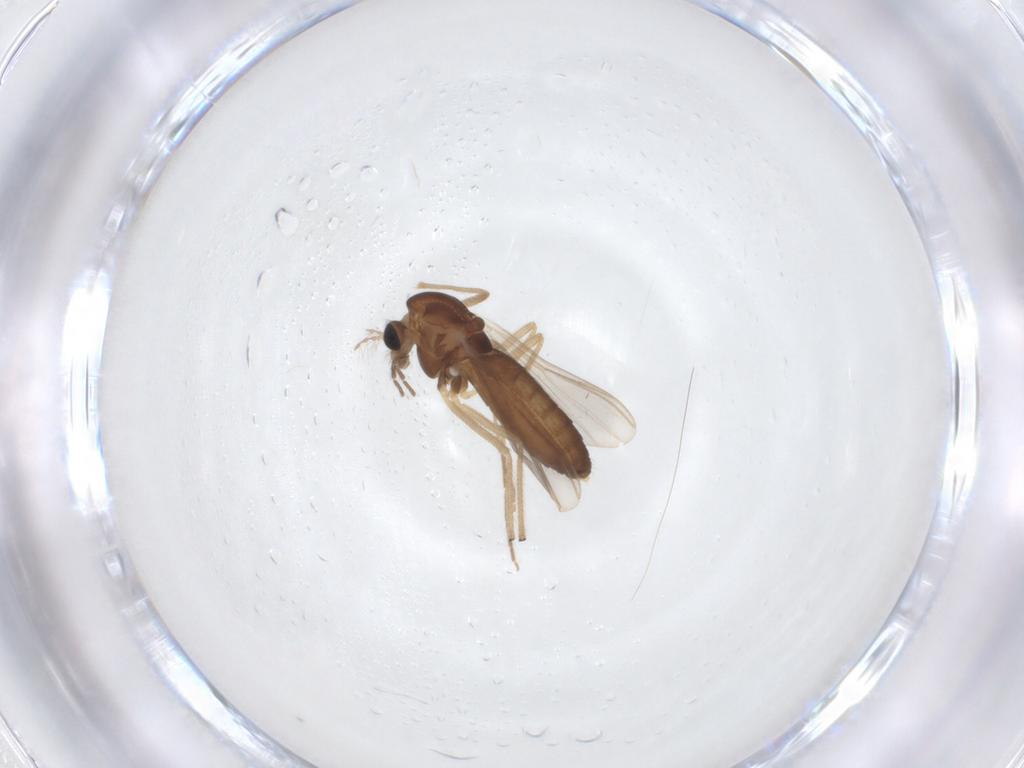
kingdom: Animalia
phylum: Arthropoda
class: Insecta
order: Diptera
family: Chironomidae
